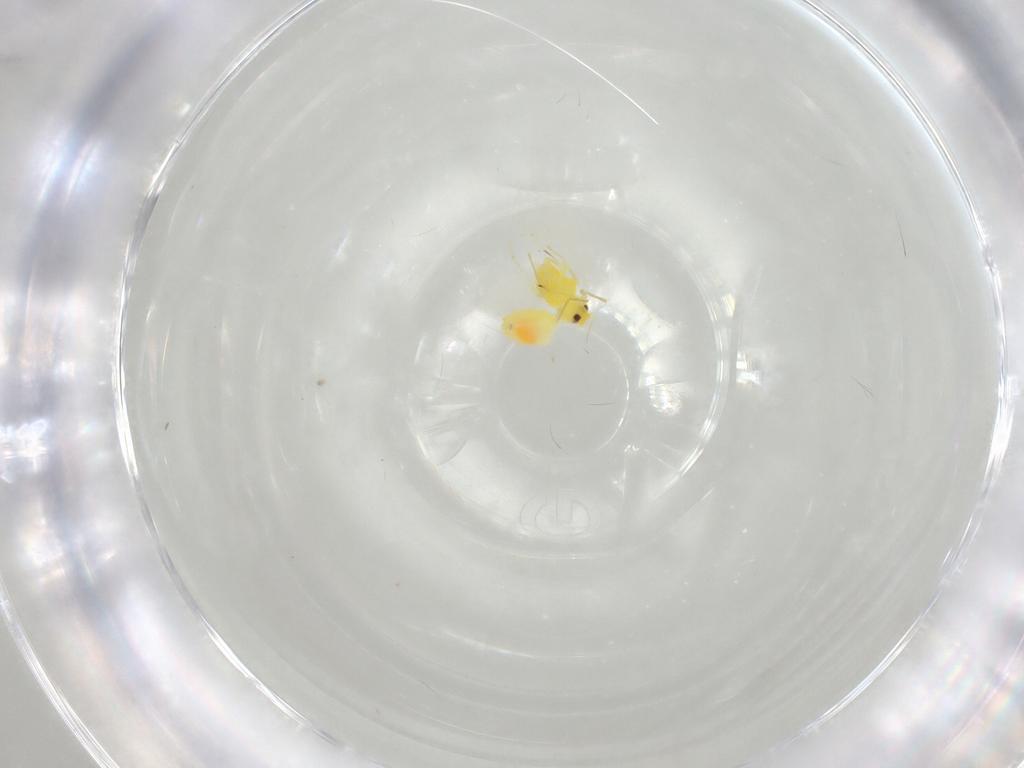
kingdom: Animalia
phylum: Arthropoda
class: Insecta
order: Hemiptera
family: Aleyrodidae
